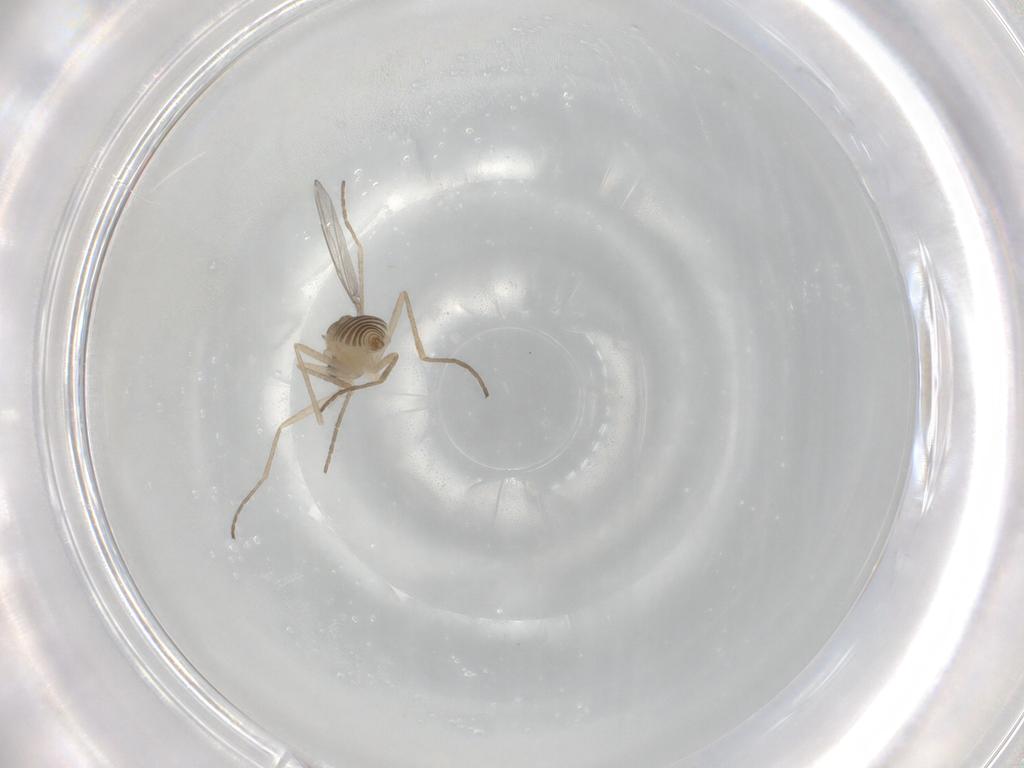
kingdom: Animalia
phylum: Arthropoda
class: Insecta
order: Diptera
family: Cecidomyiidae
